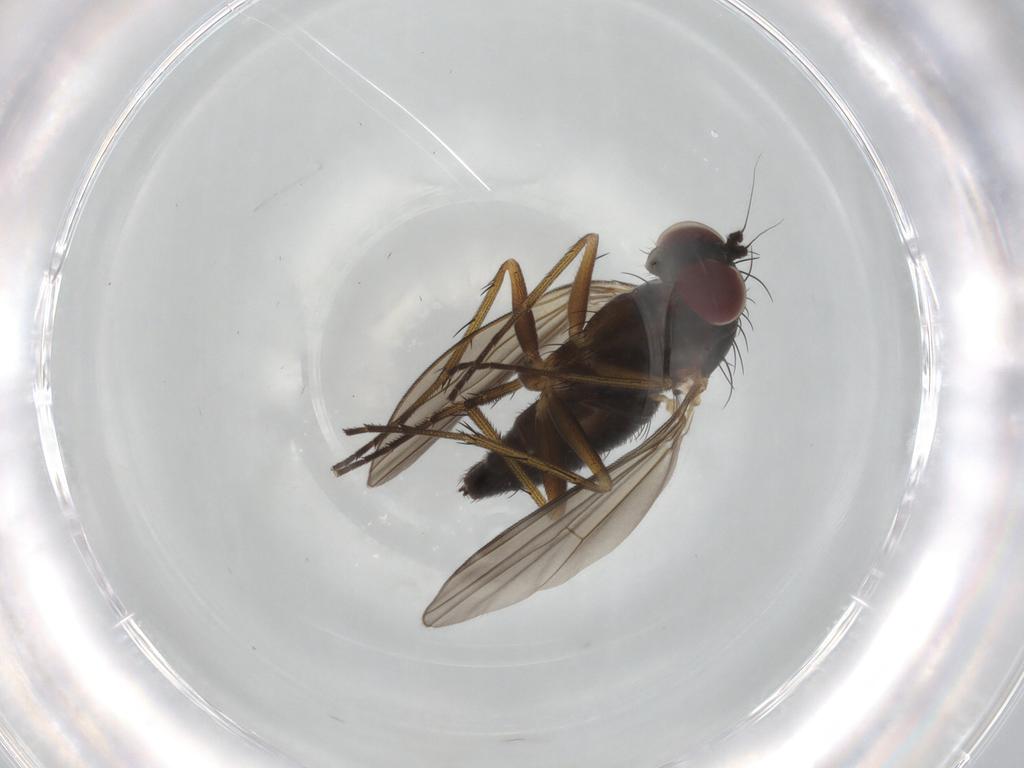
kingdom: Animalia
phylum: Arthropoda
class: Insecta
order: Diptera
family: Dolichopodidae
